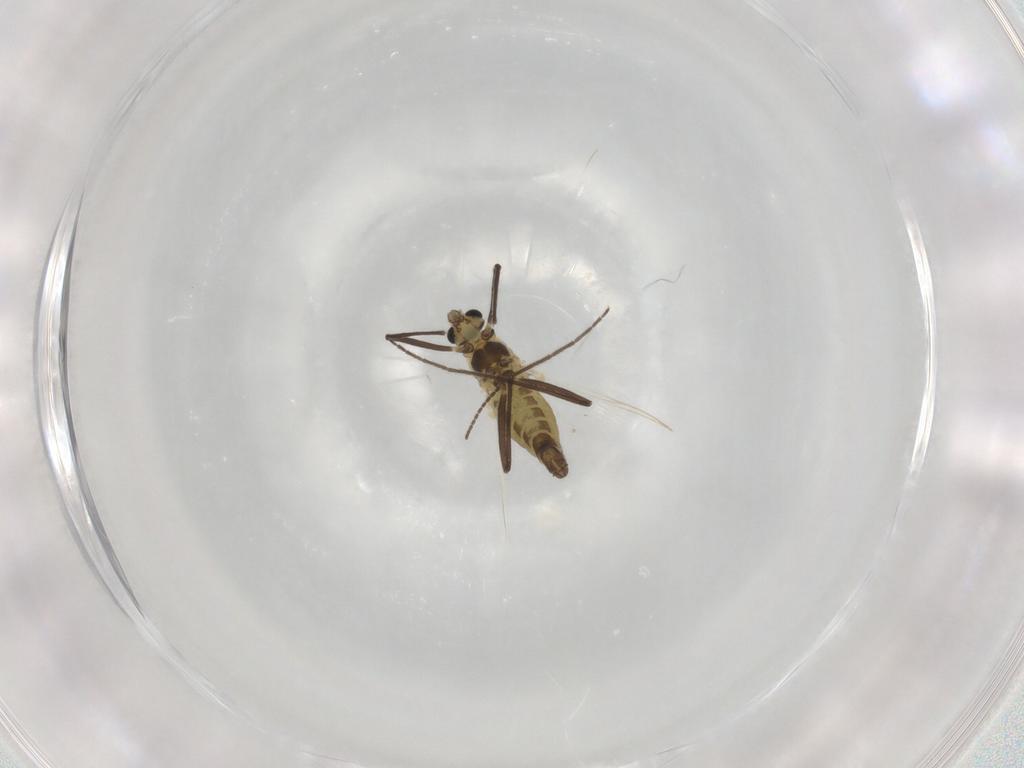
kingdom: Animalia
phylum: Arthropoda
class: Insecta
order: Diptera
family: Chironomidae
